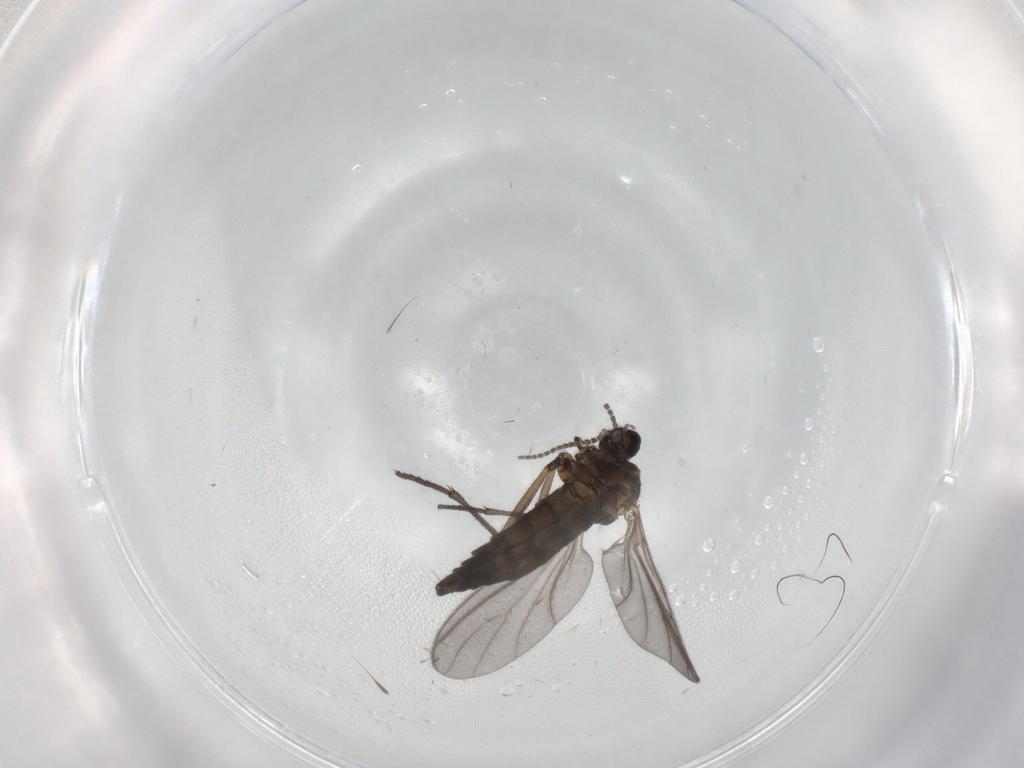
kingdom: Animalia
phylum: Arthropoda
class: Insecta
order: Diptera
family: Sciaridae
